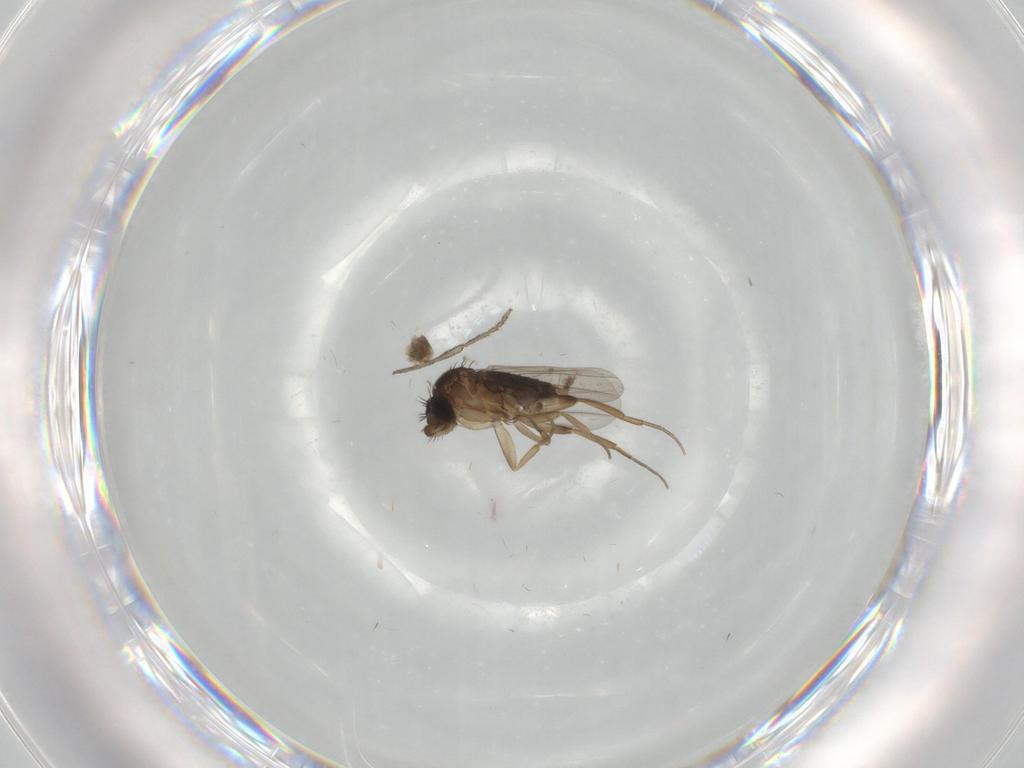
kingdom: Animalia
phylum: Arthropoda
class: Insecta
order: Diptera
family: Phoridae
